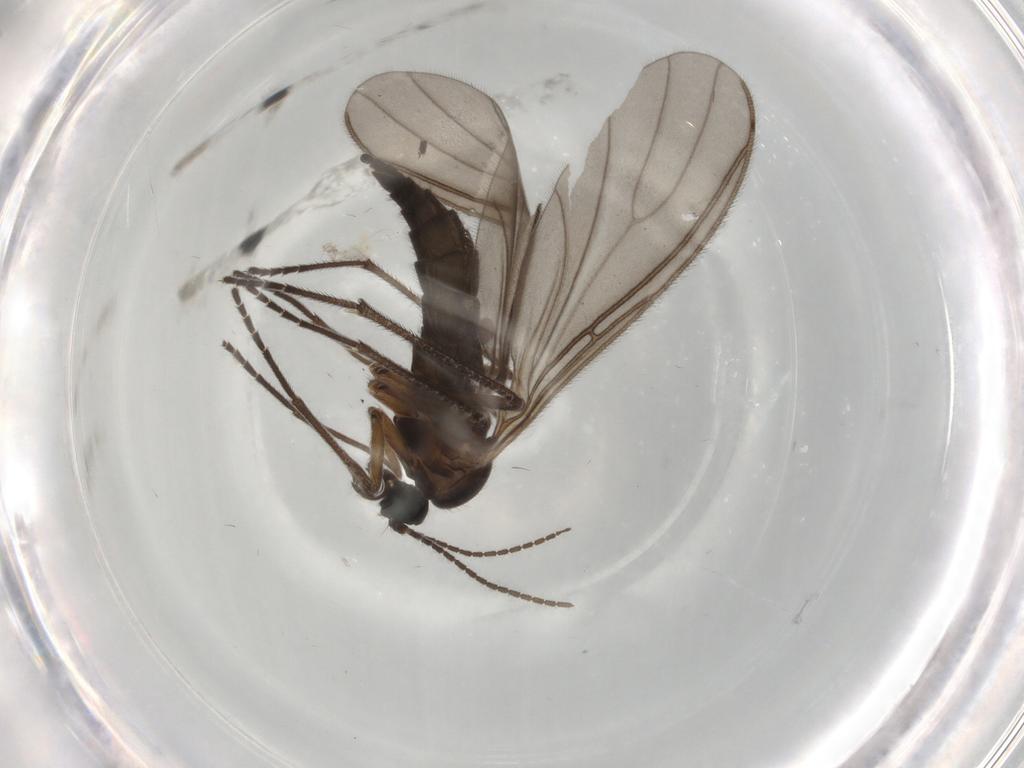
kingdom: Animalia
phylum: Arthropoda
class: Insecta
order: Diptera
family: Sciaridae
